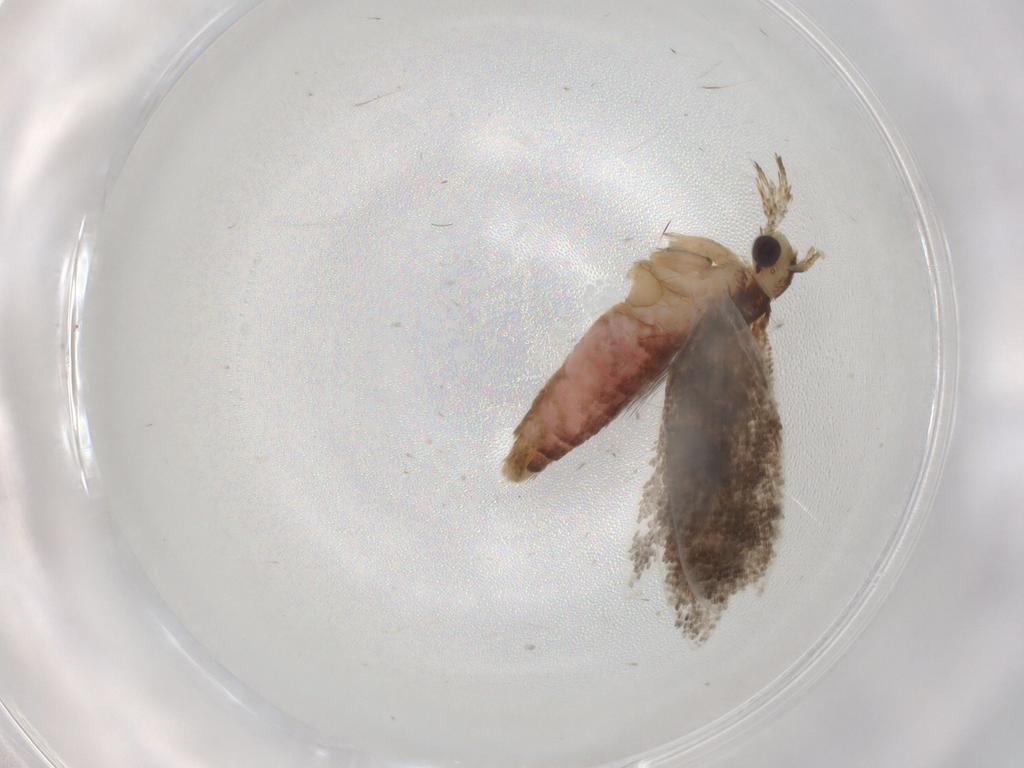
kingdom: Animalia
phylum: Arthropoda
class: Insecta
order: Lepidoptera
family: Plutellidae
